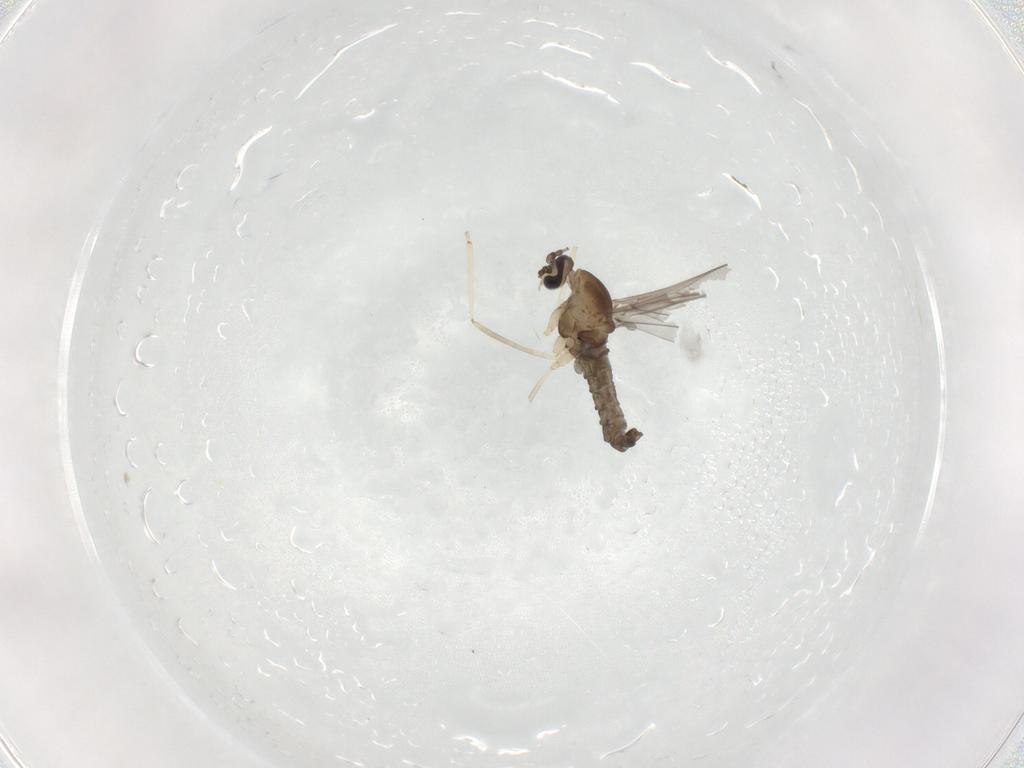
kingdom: Animalia
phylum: Arthropoda
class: Insecta
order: Diptera
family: Cecidomyiidae
